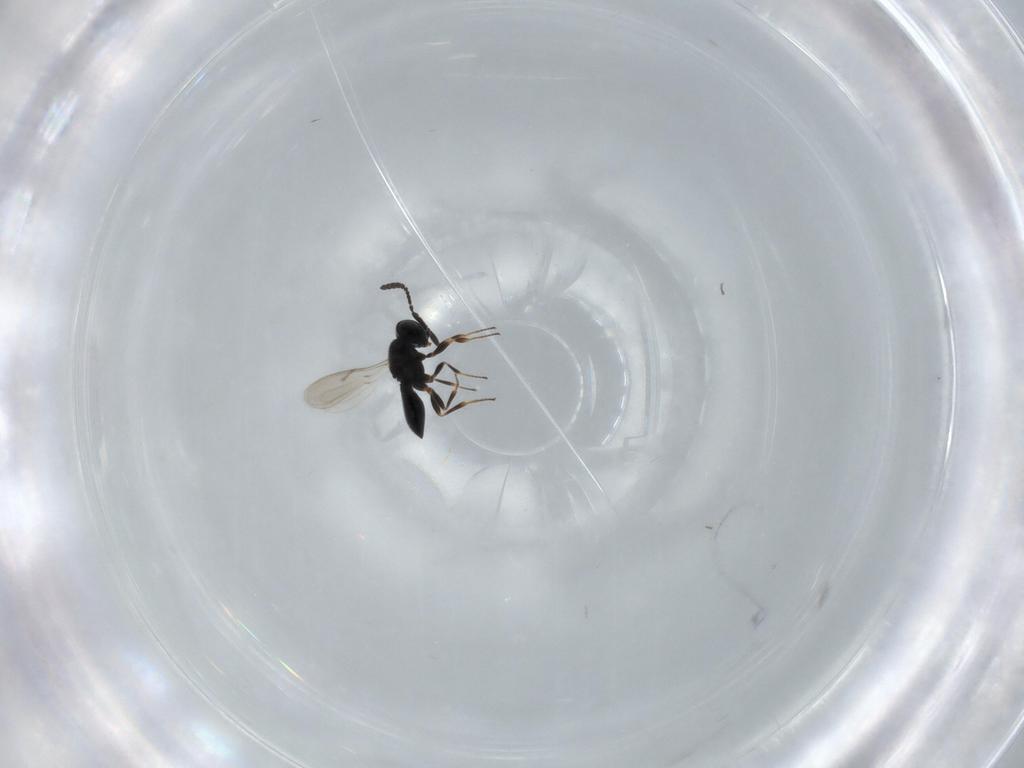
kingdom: Animalia
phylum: Arthropoda
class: Insecta
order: Hymenoptera
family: Scelionidae
